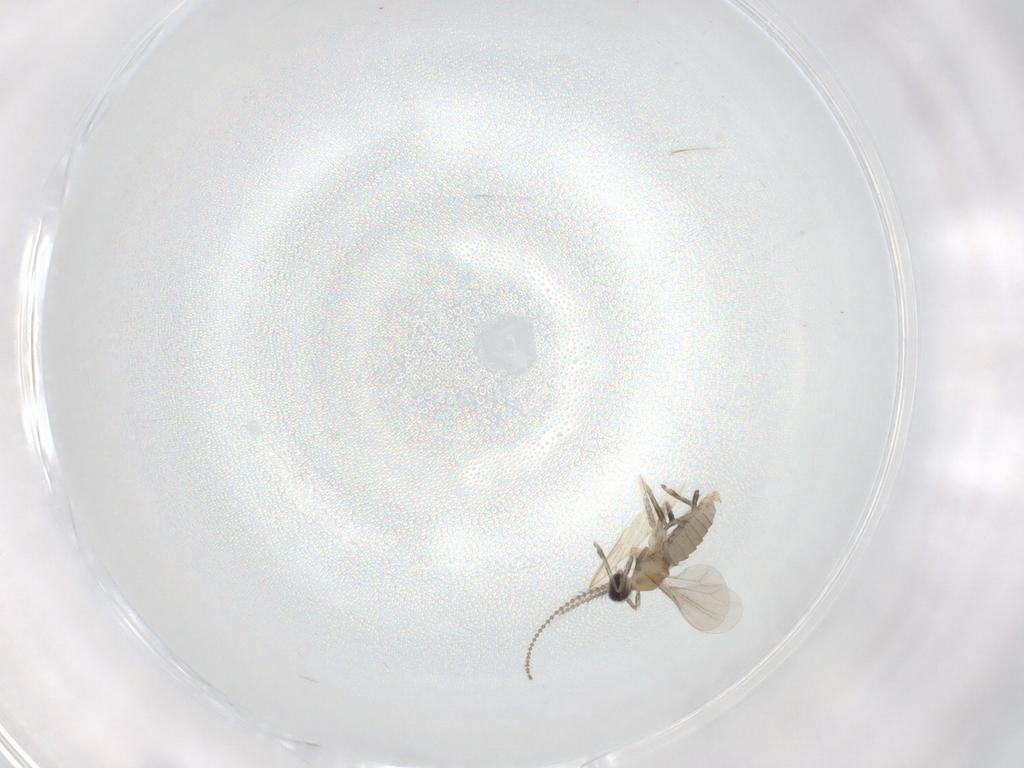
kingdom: Animalia
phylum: Arthropoda
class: Insecta
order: Diptera
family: Cecidomyiidae
